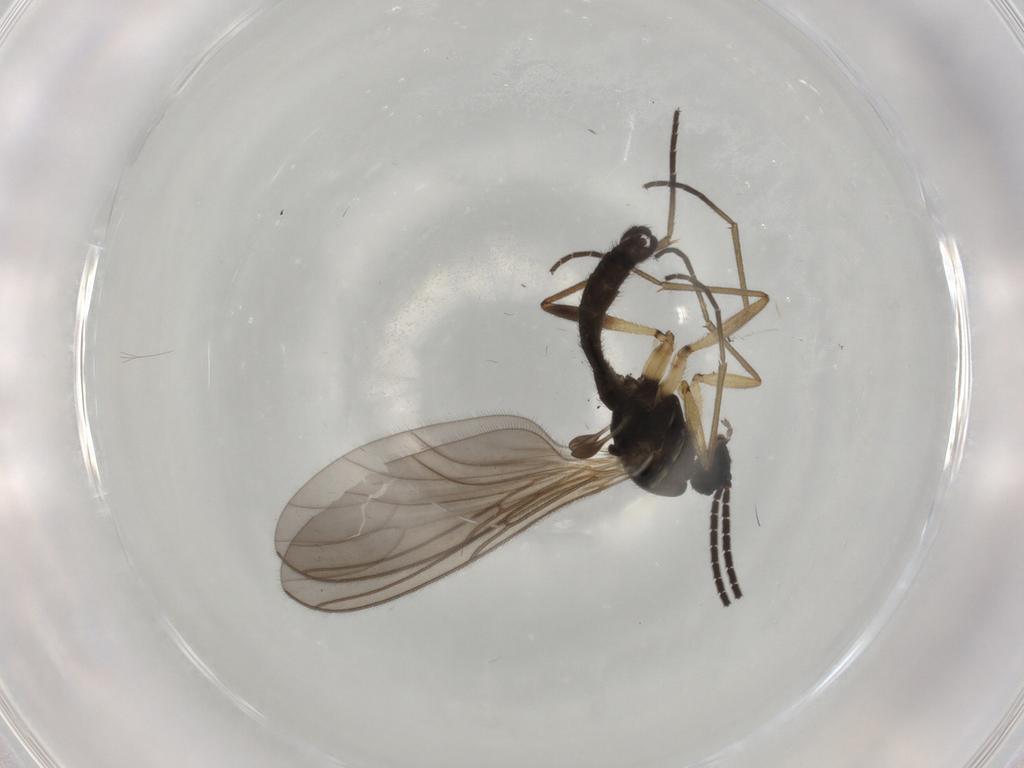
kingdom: Animalia
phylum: Arthropoda
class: Insecta
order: Diptera
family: Sciaridae
